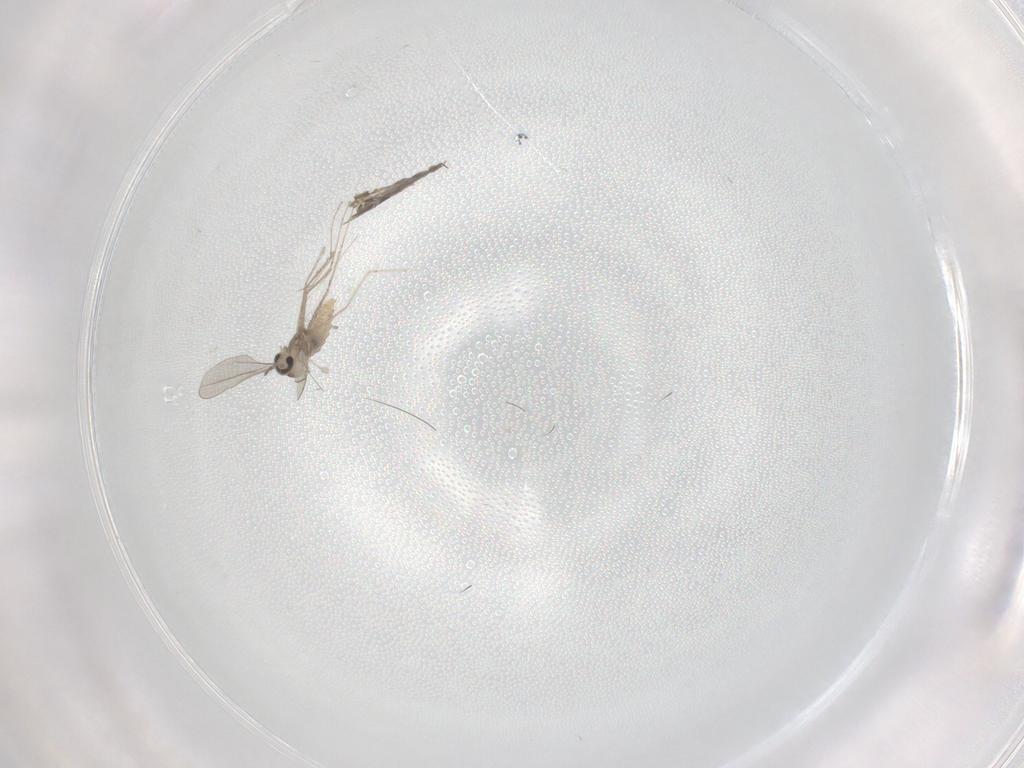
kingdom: Animalia
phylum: Arthropoda
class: Insecta
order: Diptera
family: Cecidomyiidae
